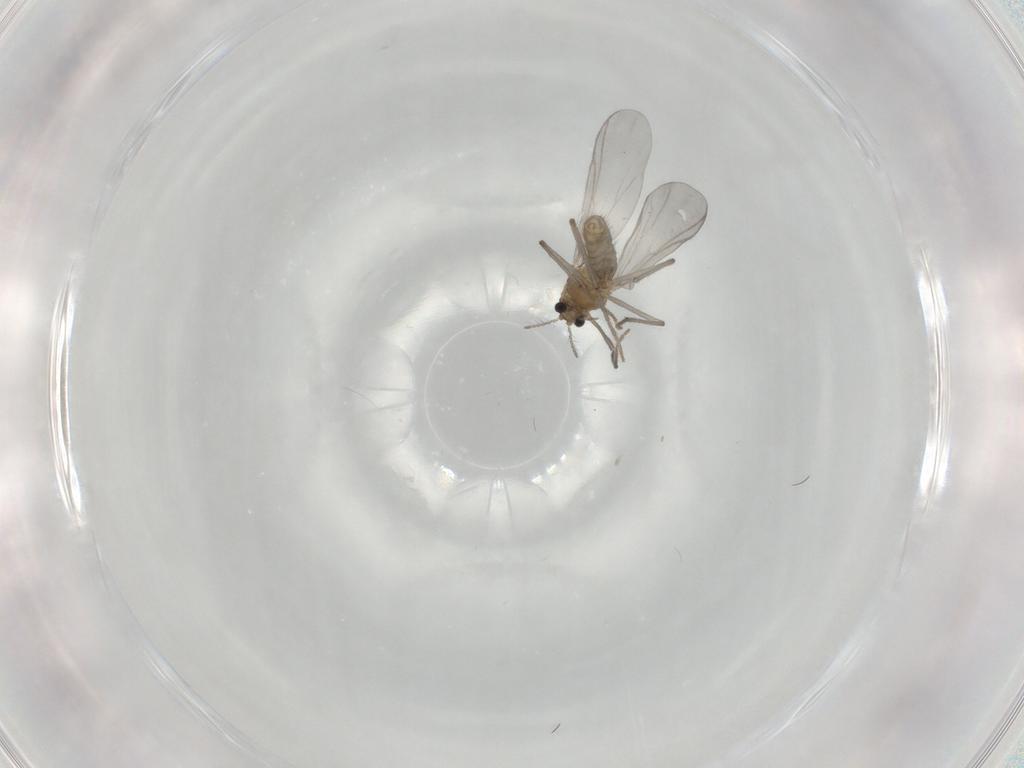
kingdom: Animalia
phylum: Arthropoda
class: Insecta
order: Diptera
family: Chironomidae
